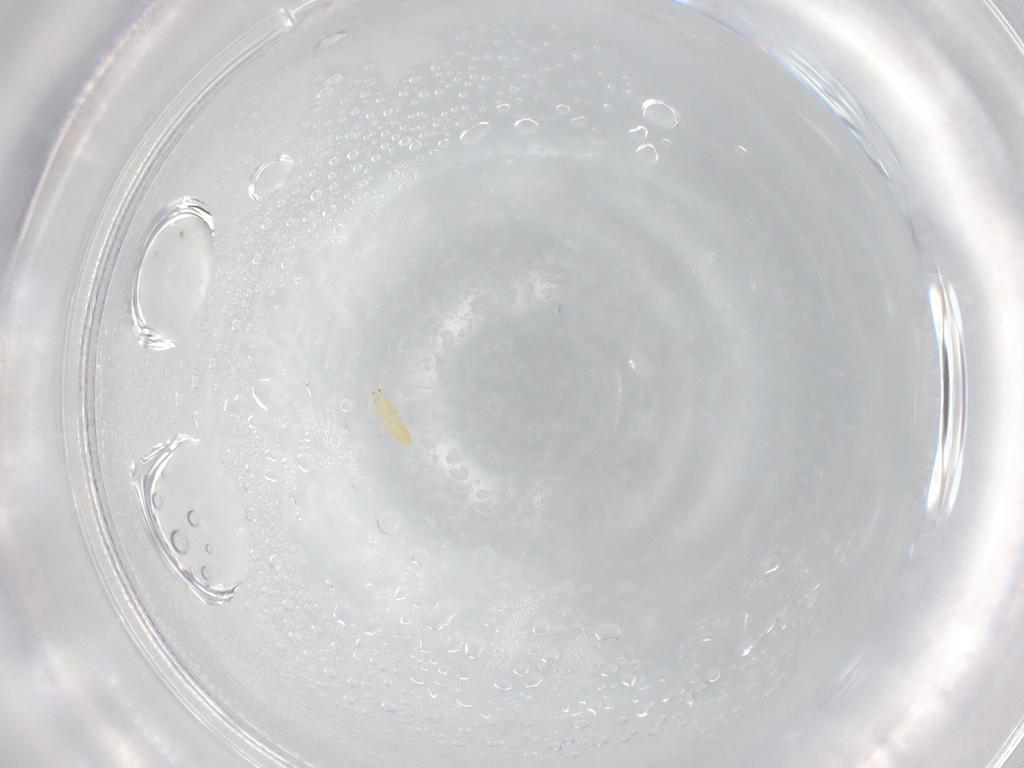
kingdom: Animalia
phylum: Arthropoda
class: Insecta
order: Thysanoptera
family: Thripidae
